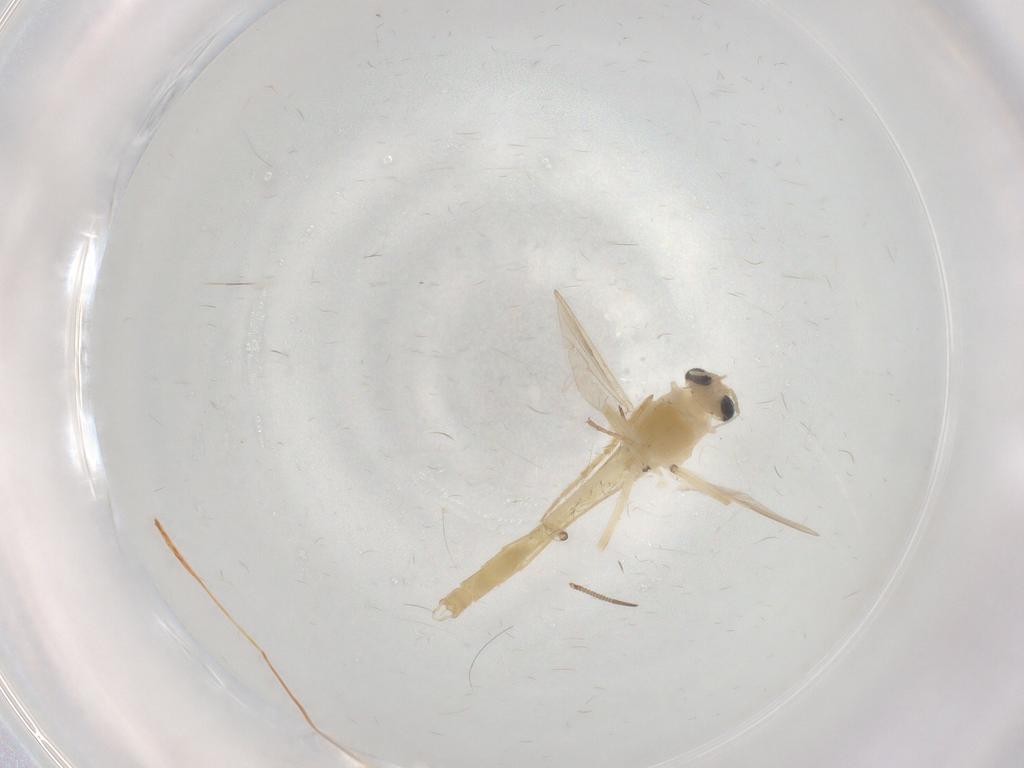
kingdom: Animalia
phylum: Arthropoda
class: Insecta
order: Diptera
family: Chironomidae
